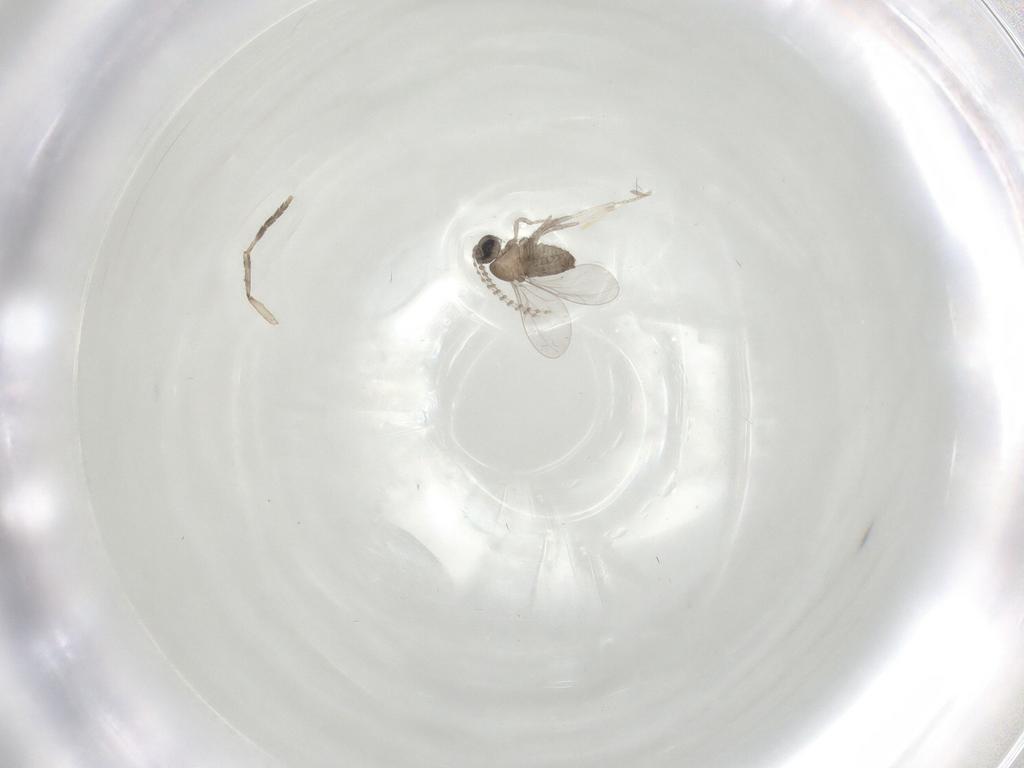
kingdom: Animalia
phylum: Arthropoda
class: Insecta
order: Diptera
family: Cecidomyiidae
